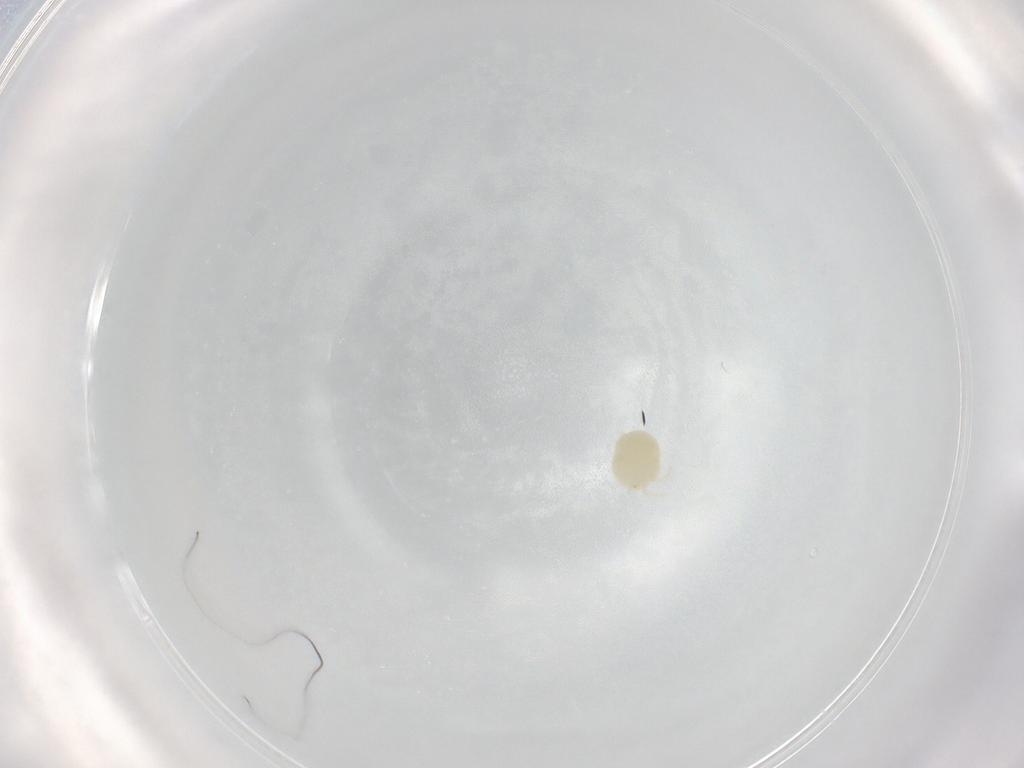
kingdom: Animalia
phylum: Arthropoda
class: Arachnida
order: Trombidiformes
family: Hydryphantidae
